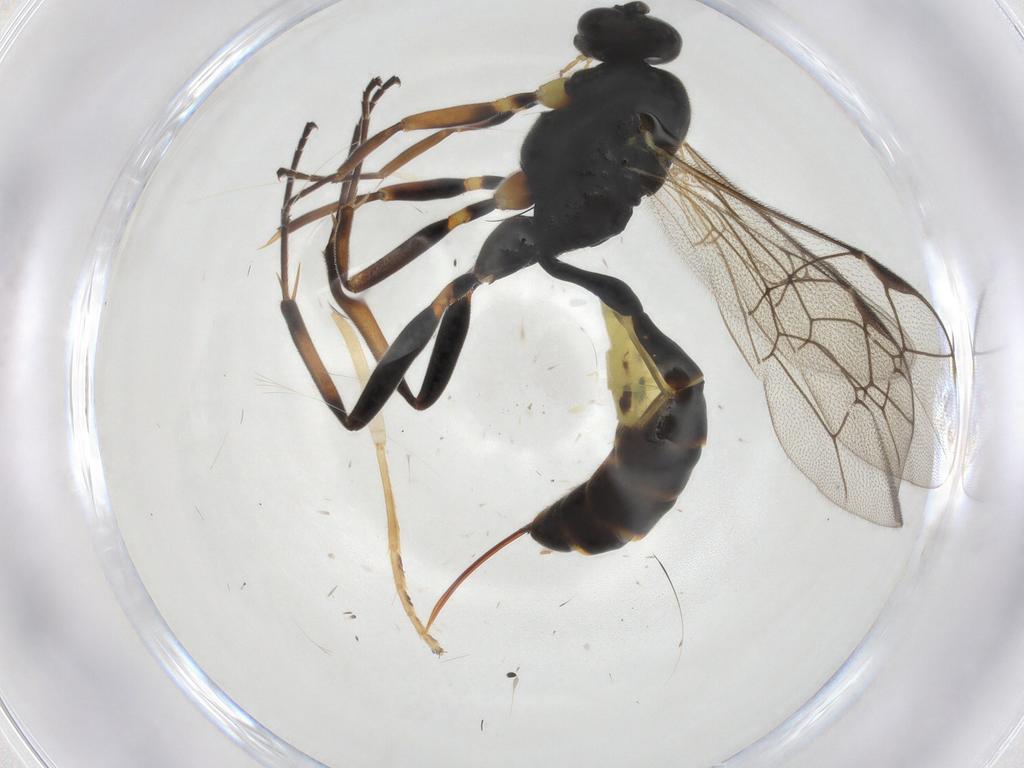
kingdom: Animalia
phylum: Arthropoda
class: Insecta
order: Hymenoptera
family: Ichneumonidae
